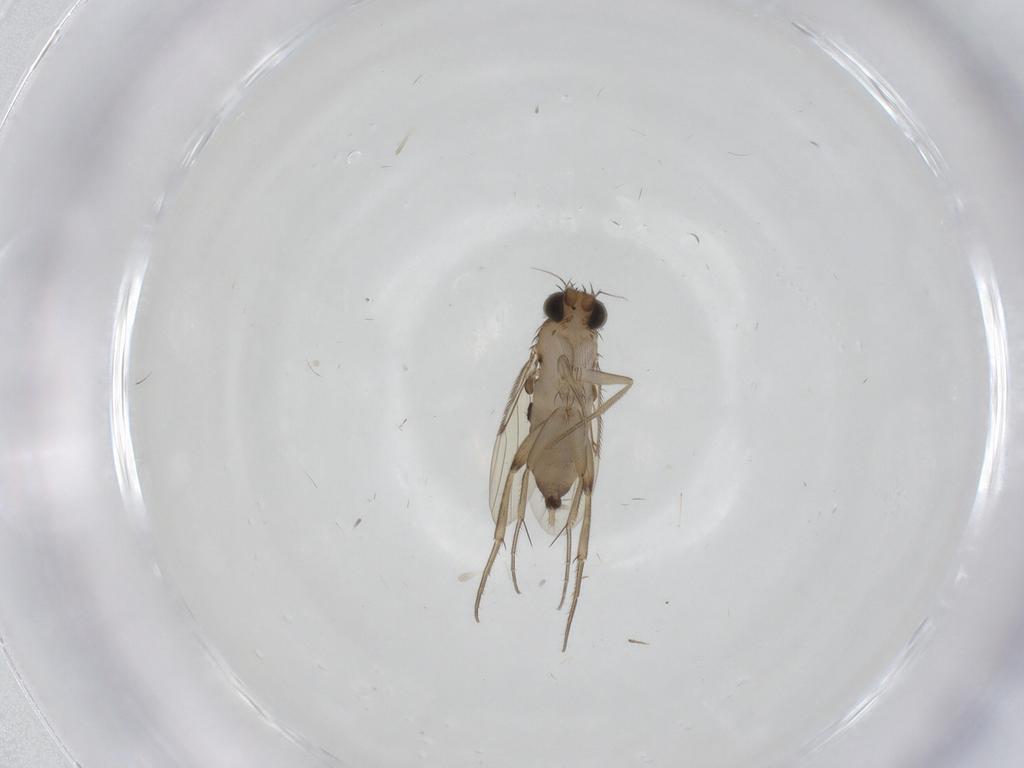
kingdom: Animalia
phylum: Arthropoda
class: Insecta
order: Diptera
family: Phoridae
